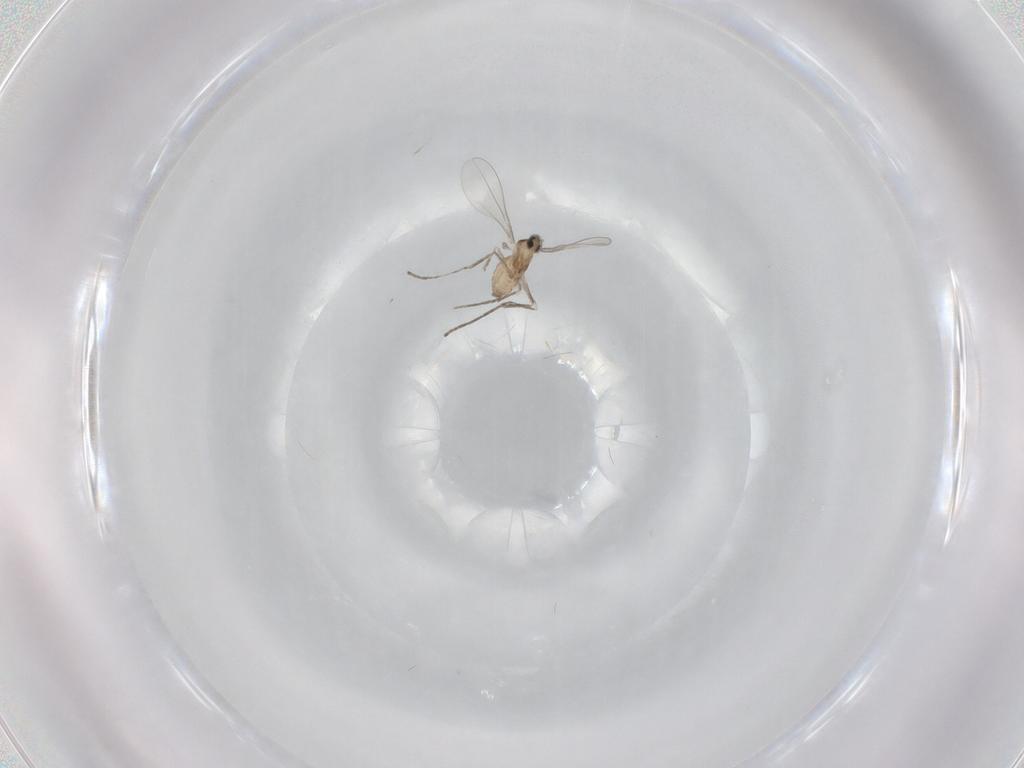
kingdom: Animalia
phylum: Arthropoda
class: Insecta
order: Diptera
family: Cecidomyiidae
